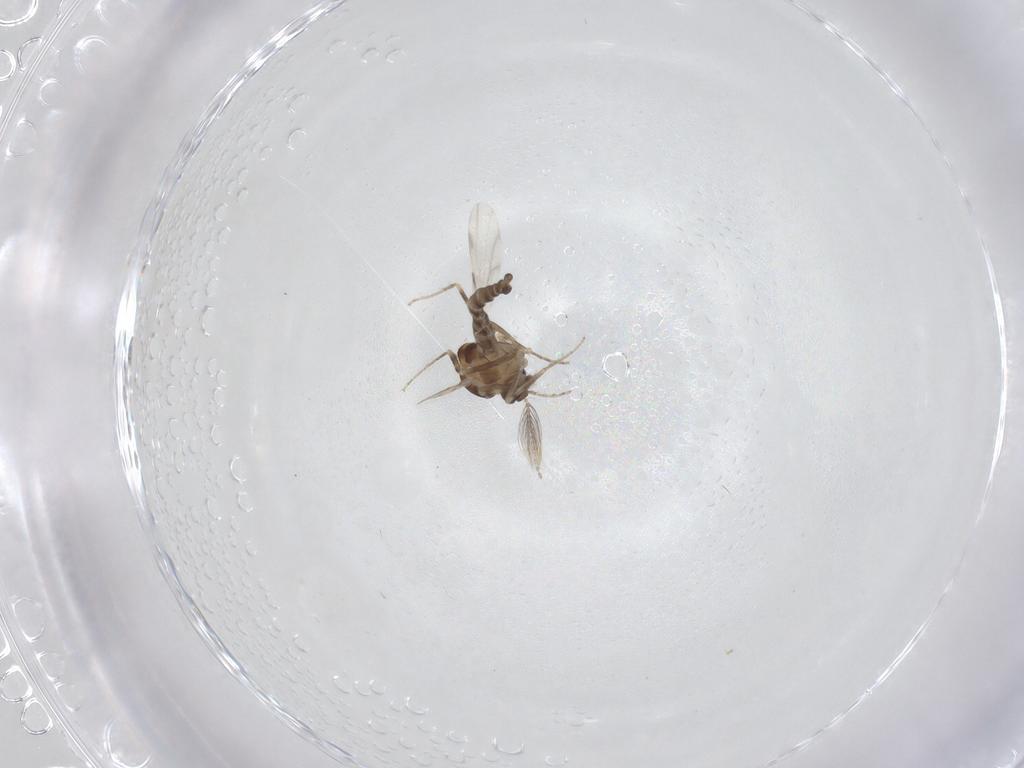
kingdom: Animalia
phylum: Arthropoda
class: Insecta
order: Diptera
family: Ceratopogonidae
